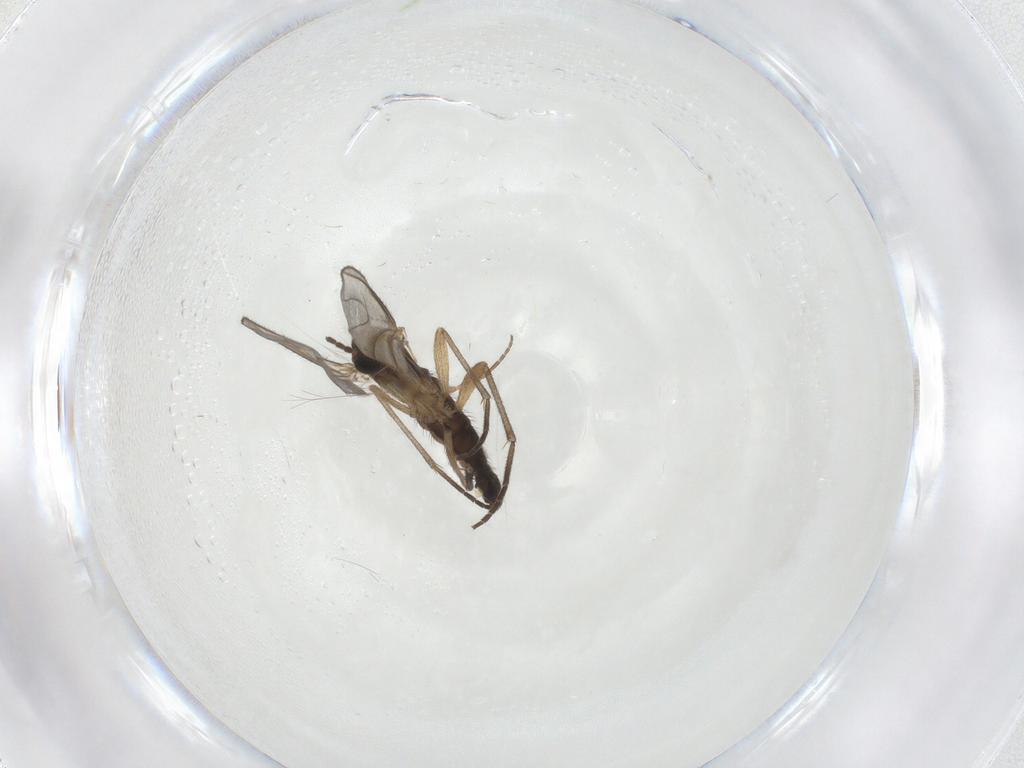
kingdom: Animalia
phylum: Arthropoda
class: Insecta
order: Diptera
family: Sciaridae
